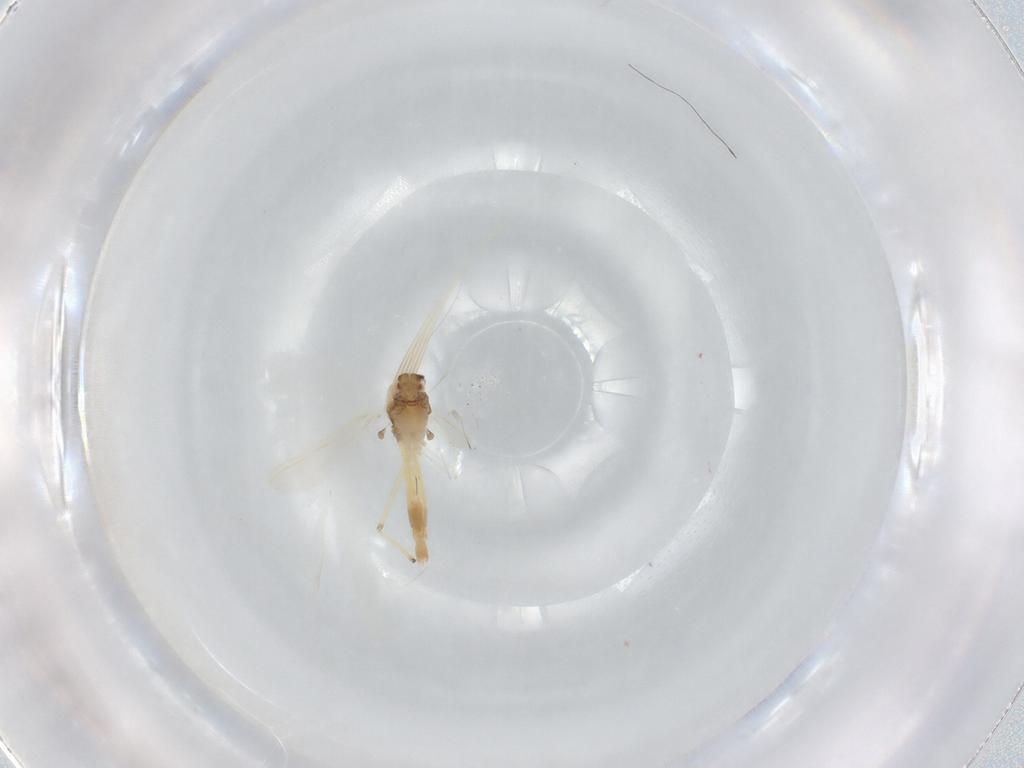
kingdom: Animalia
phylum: Arthropoda
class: Insecta
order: Diptera
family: Chironomidae
